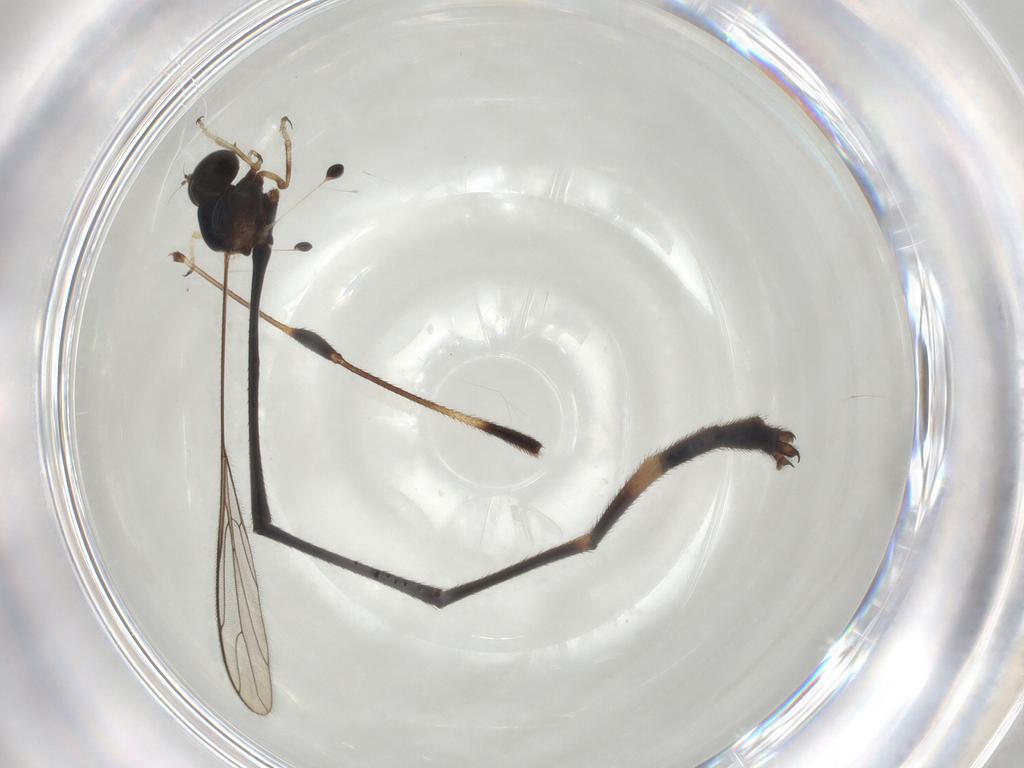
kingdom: Animalia
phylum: Arthropoda
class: Insecta
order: Diptera
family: Asilidae
